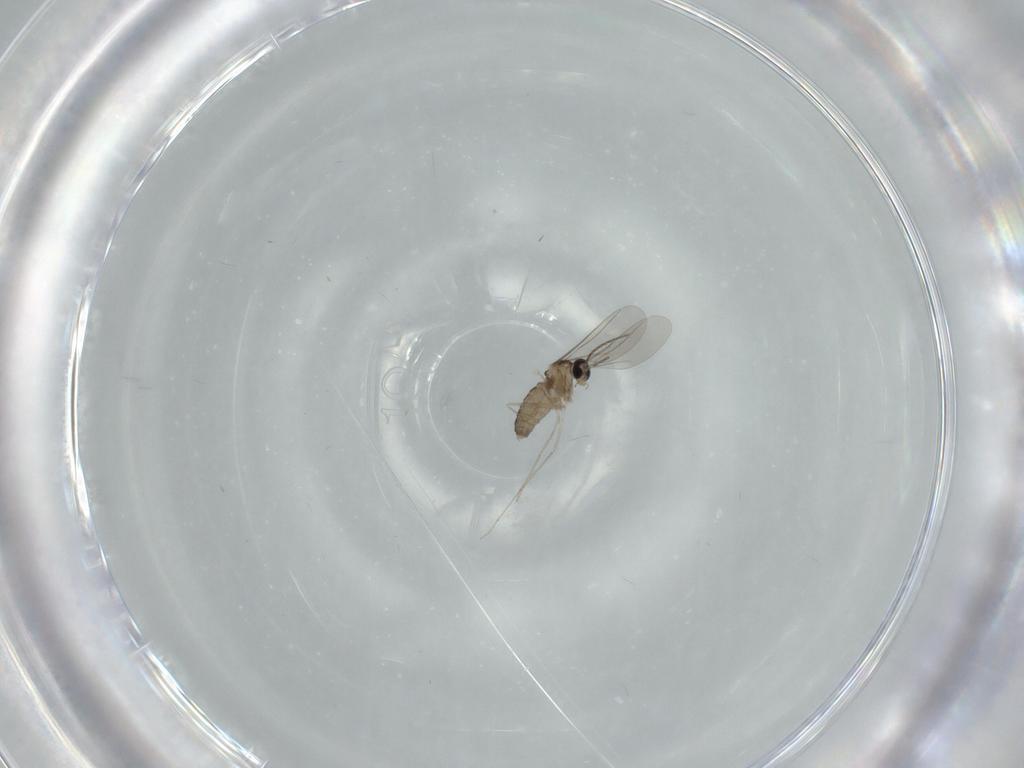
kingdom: Animalia
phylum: Arthropoda
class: Insecta
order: Diptera
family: Cecidomyiidae
